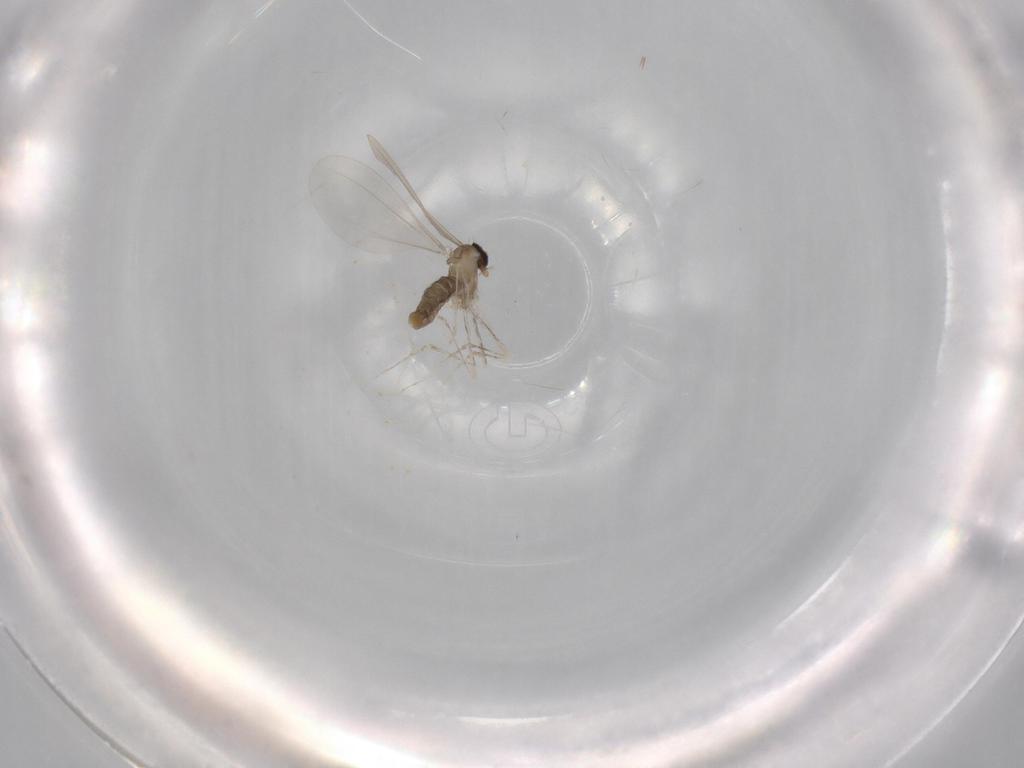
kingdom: Animalia
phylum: Arthropoda
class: Insecta
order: Diptera
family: Cecidomyiidae
